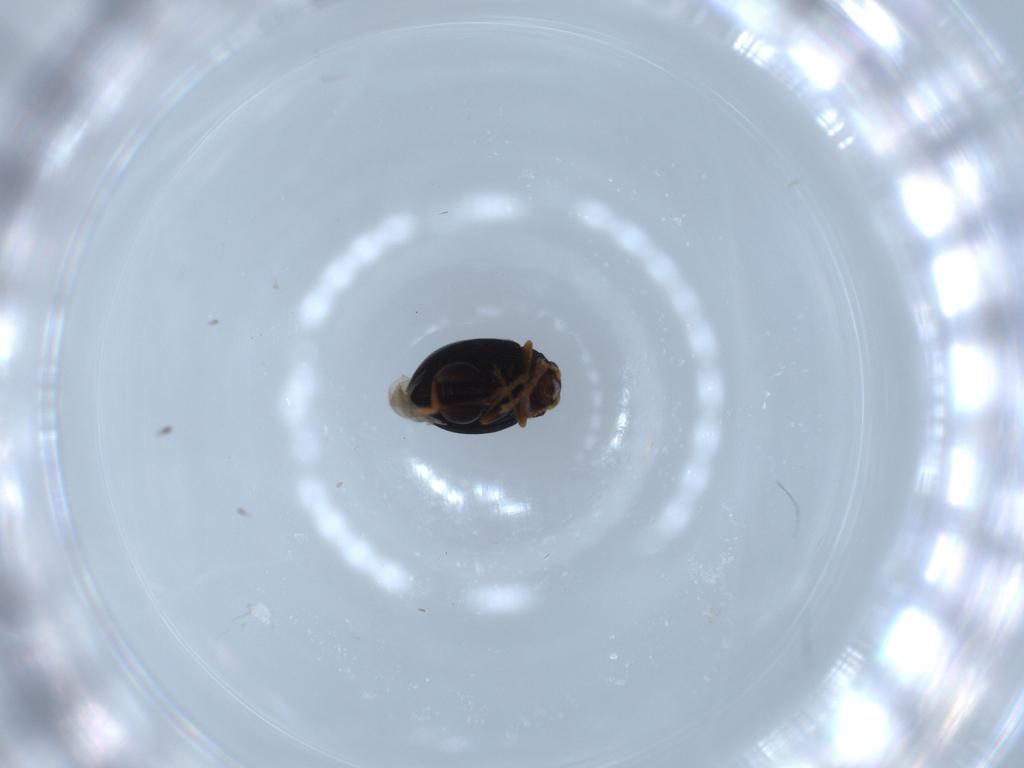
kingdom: Animalia
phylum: Arthropoda
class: Insecta
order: Coleoptera
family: Chrysomelidae
